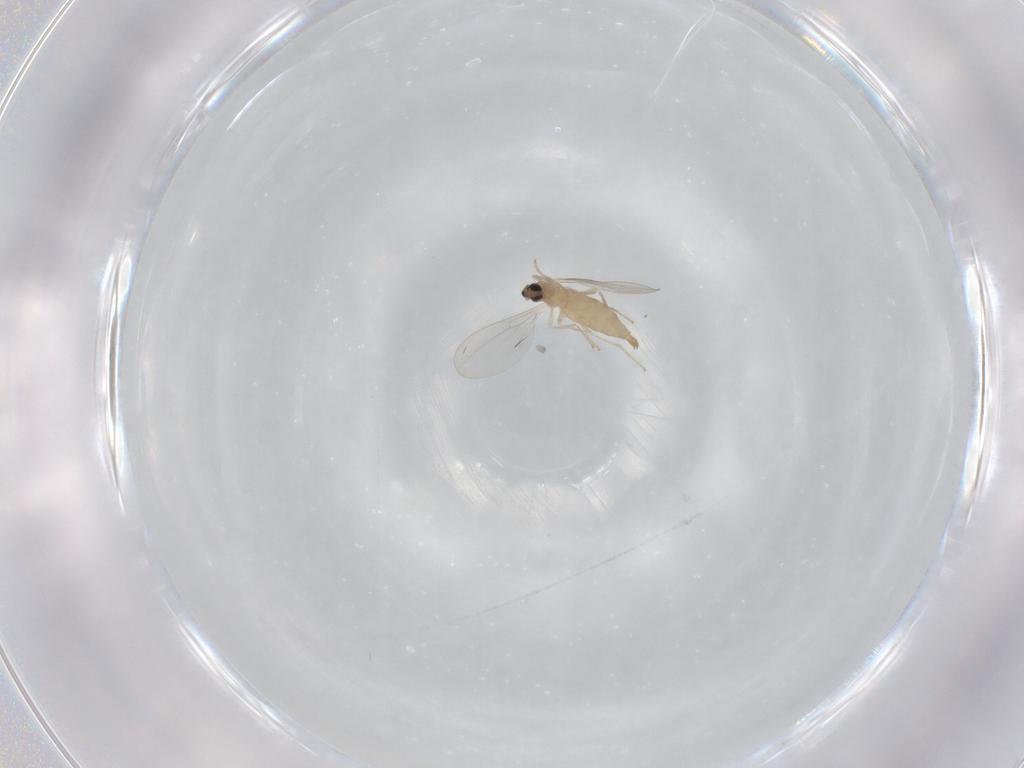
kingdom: Animalia
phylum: Arthropoda
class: Insecta
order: Diptera
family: Cecidomyiidae
